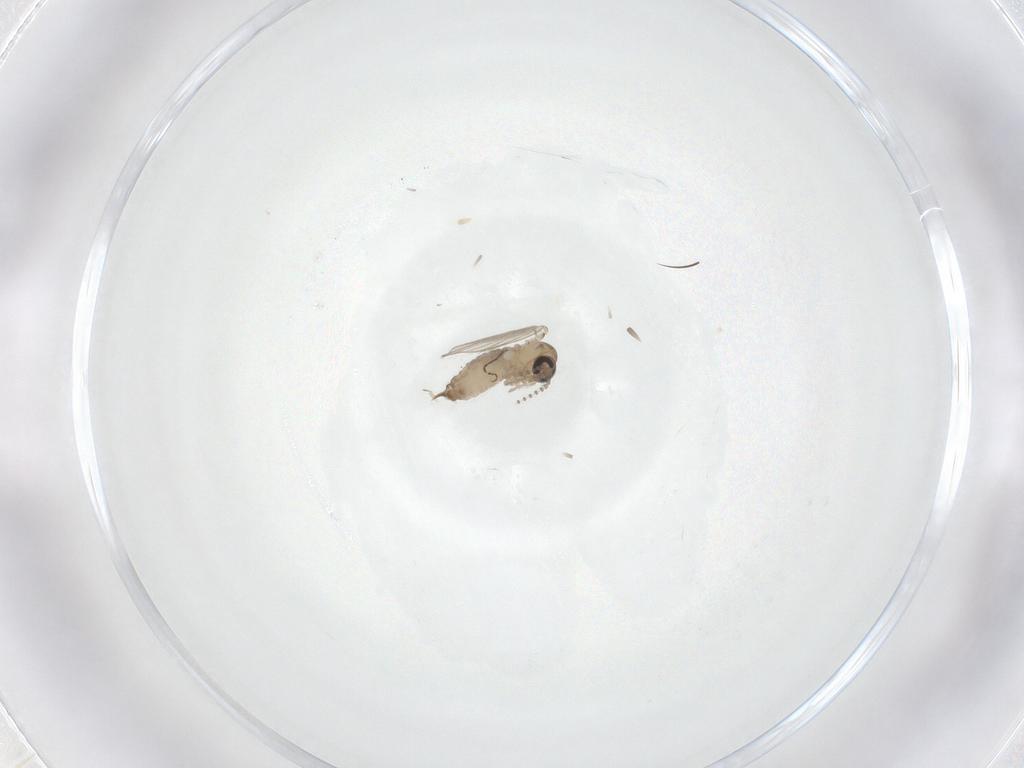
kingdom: Animalia
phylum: Arthropoda
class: Insecta
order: Diptera
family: Psychodidae
